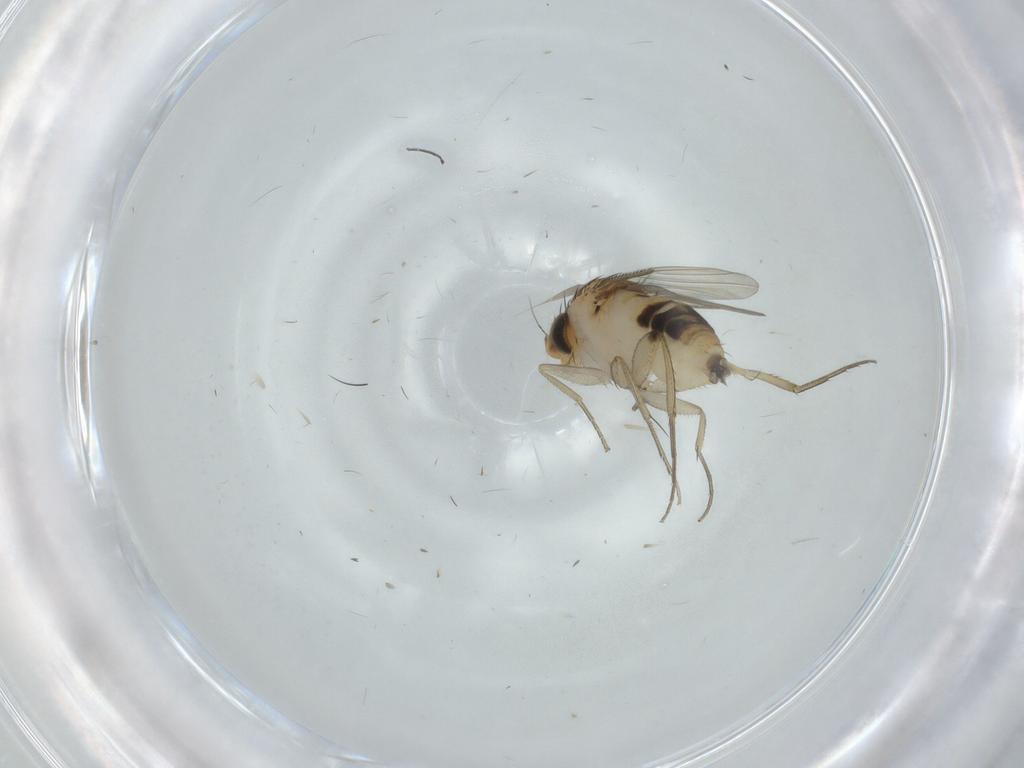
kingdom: Animalia
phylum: Arthropoda
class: Insecta
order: Diptera
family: Phoridae
